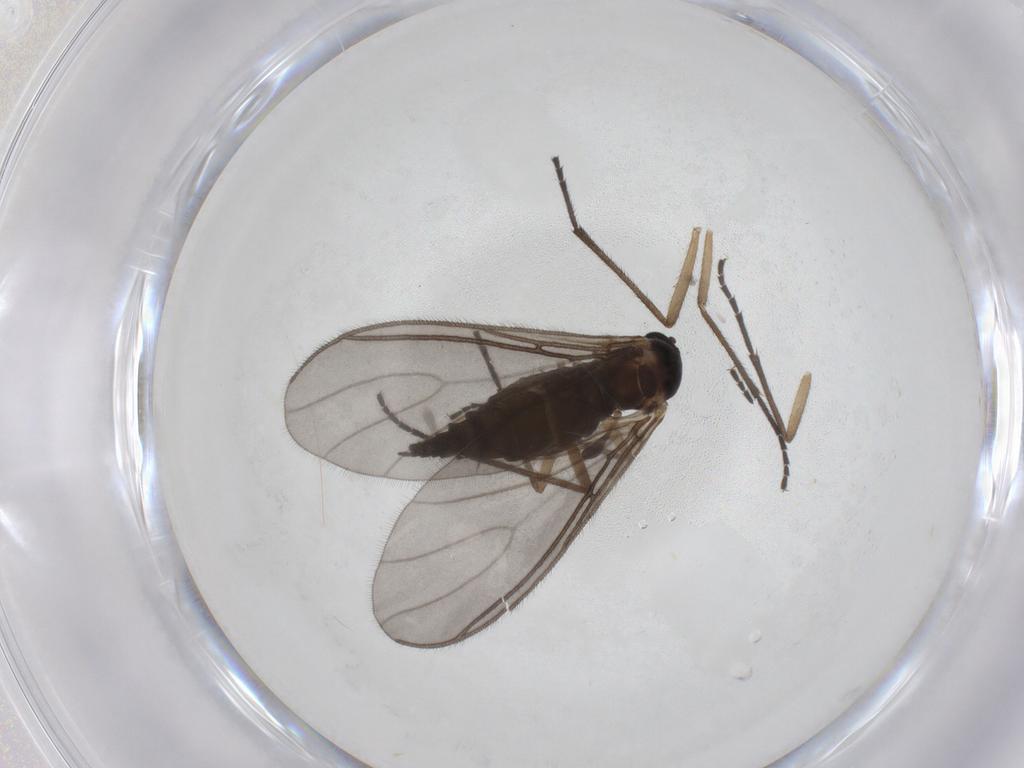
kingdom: Animalia
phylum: Arthropoda
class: Insecta
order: Diptera
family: Sciaridae
